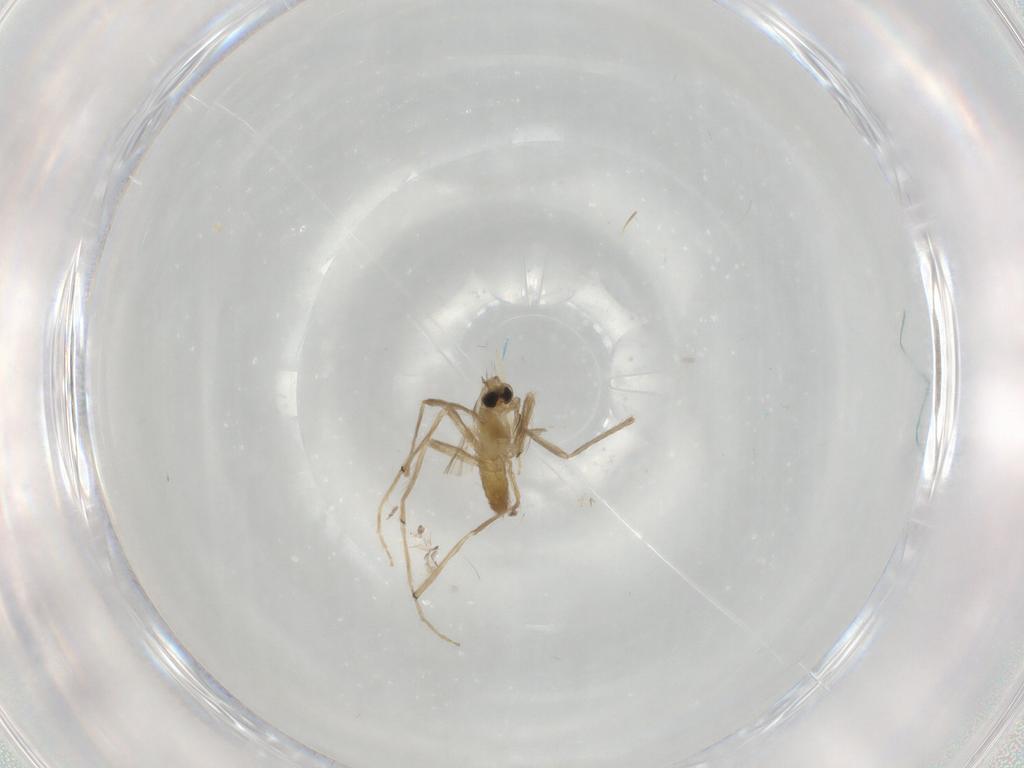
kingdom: Animalia
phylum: Arthropoda
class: Insecta
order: Diptera
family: Chironomidae
